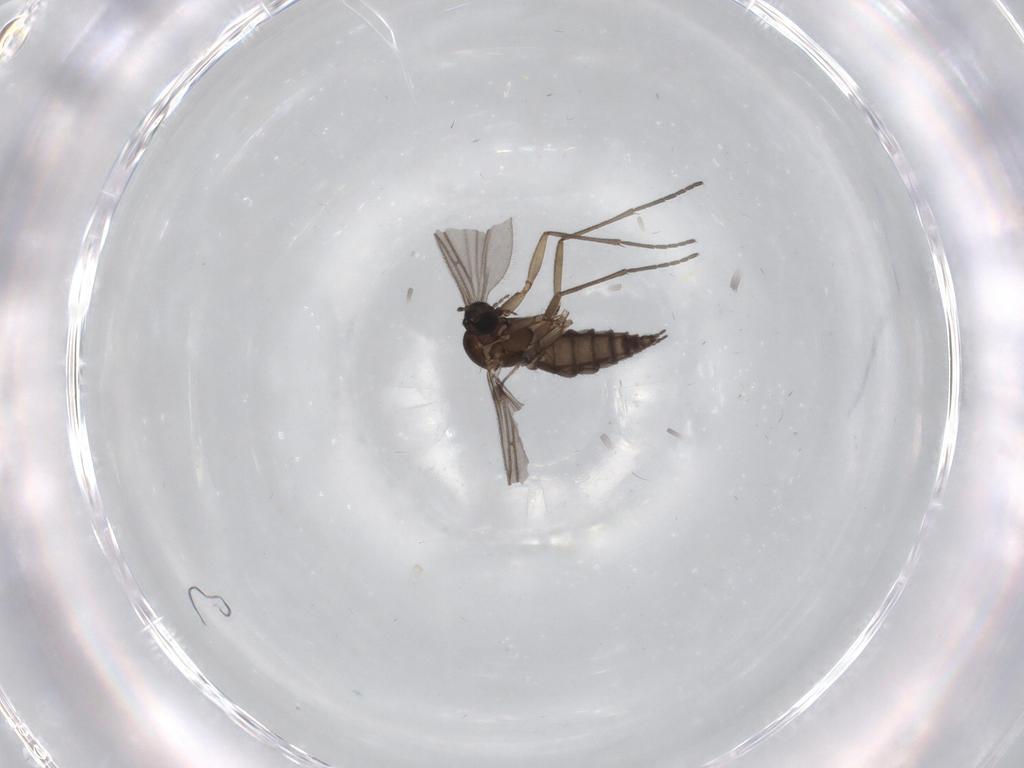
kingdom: Animalia
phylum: Arthropoda
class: Insecta
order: Diptera
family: Sciaridae
